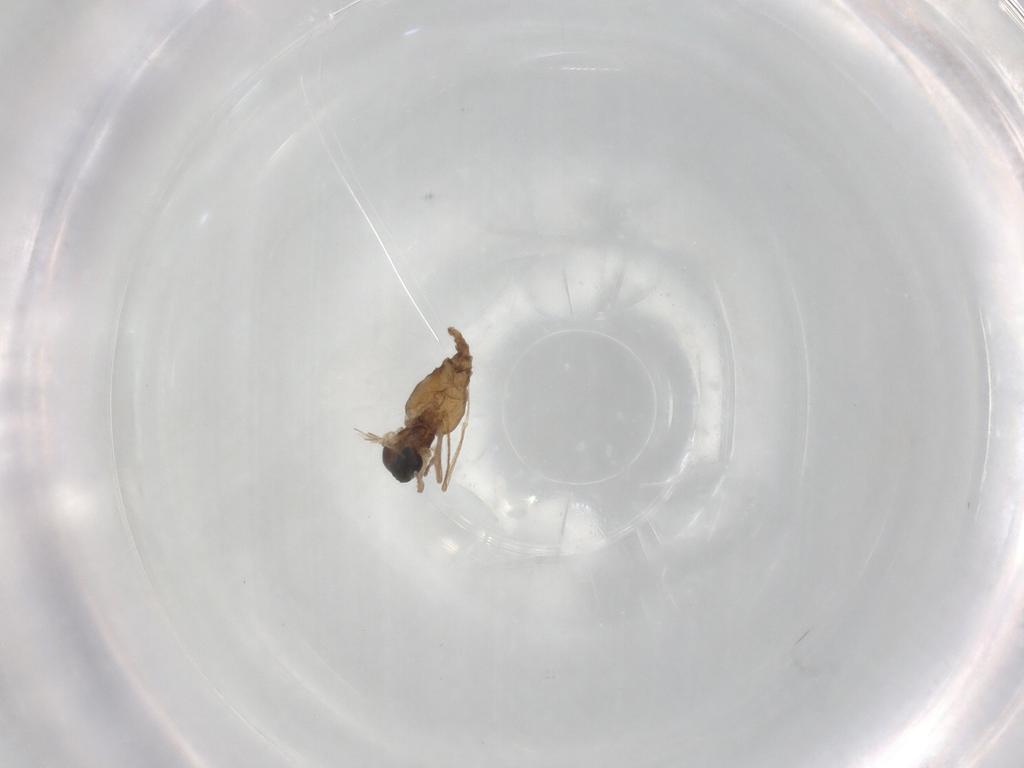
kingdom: Animalia
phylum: Arthropoda
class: Insecta
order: Diptera
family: Cecidomyiidae
